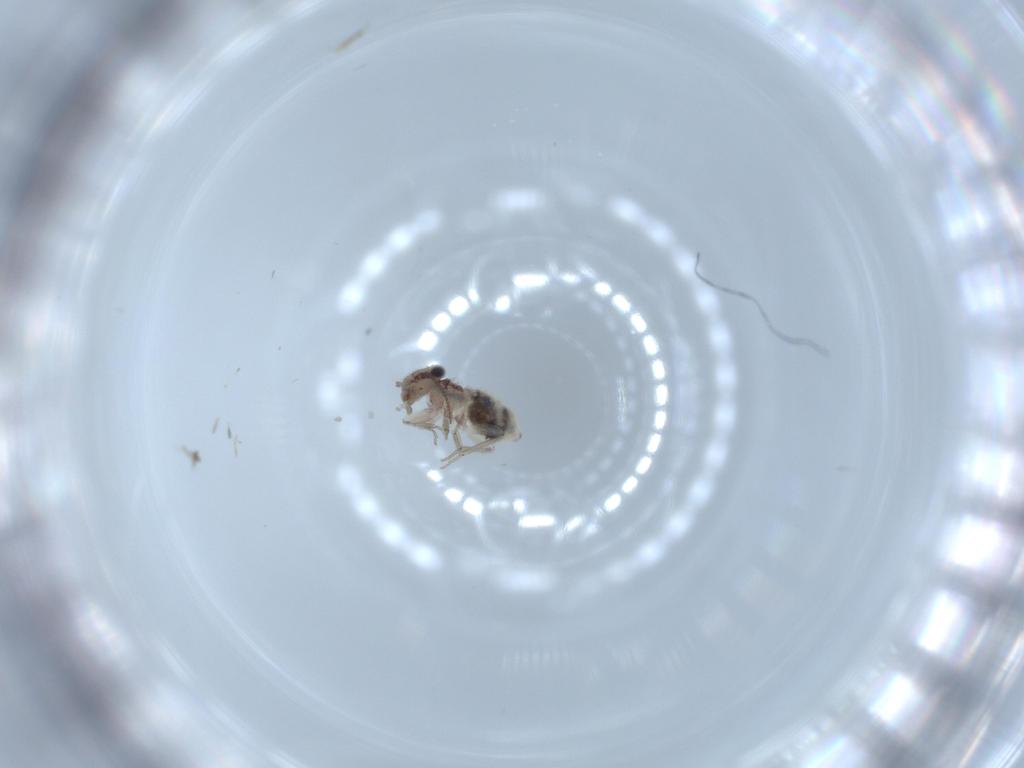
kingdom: Animalia
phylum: Arthropoda
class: Insecta
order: Psocodea
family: Lepidopsocidae
